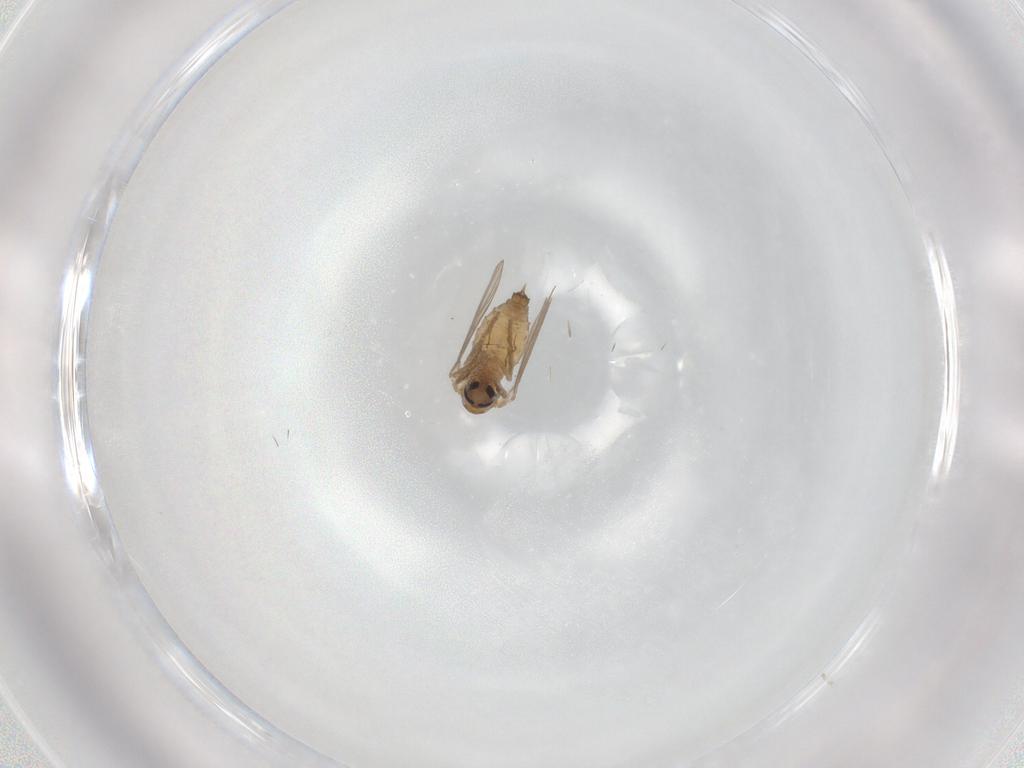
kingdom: Animalia
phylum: Arthropoda
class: Insecta
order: Diptera
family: Psychodidae
